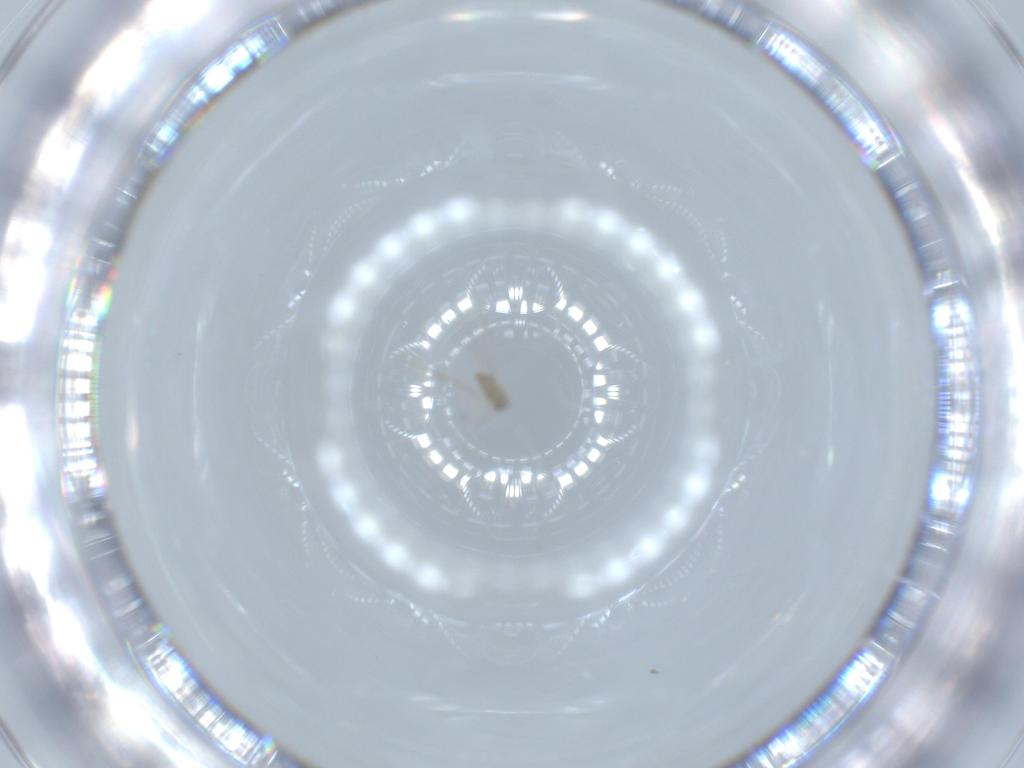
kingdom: Animalia
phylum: Arthropoda
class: Insecta
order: Diptera
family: Cecidomyiidae
